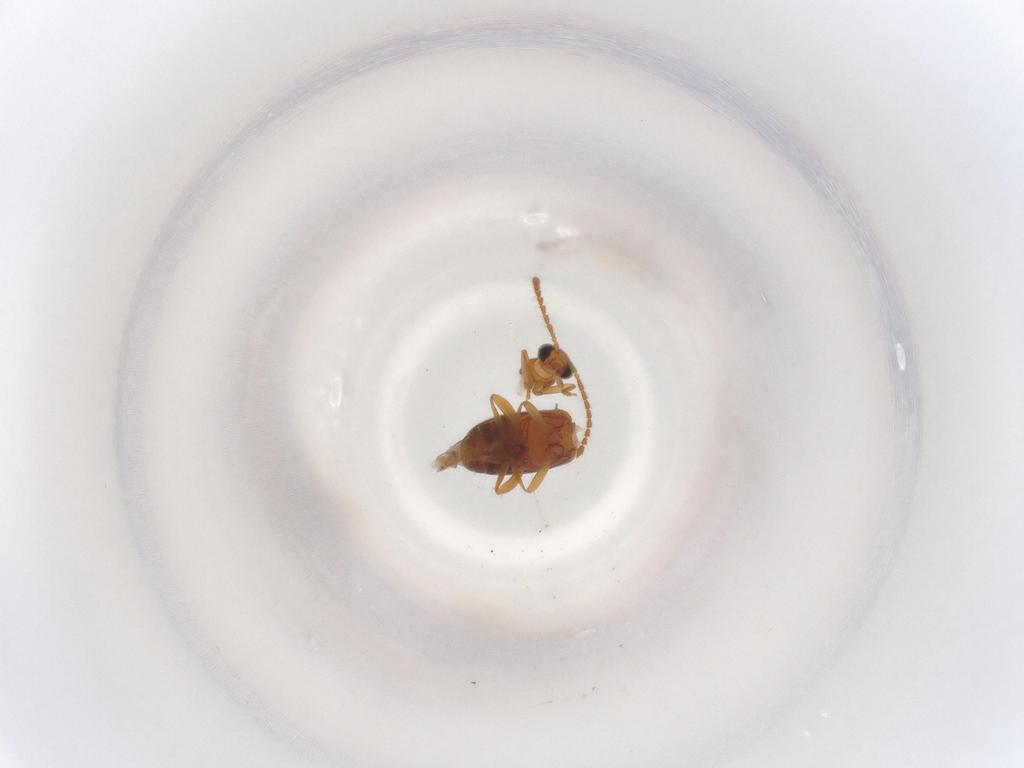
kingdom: Animalia
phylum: Arthropoda
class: Insecta
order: Coleoptera
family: Aderidae
